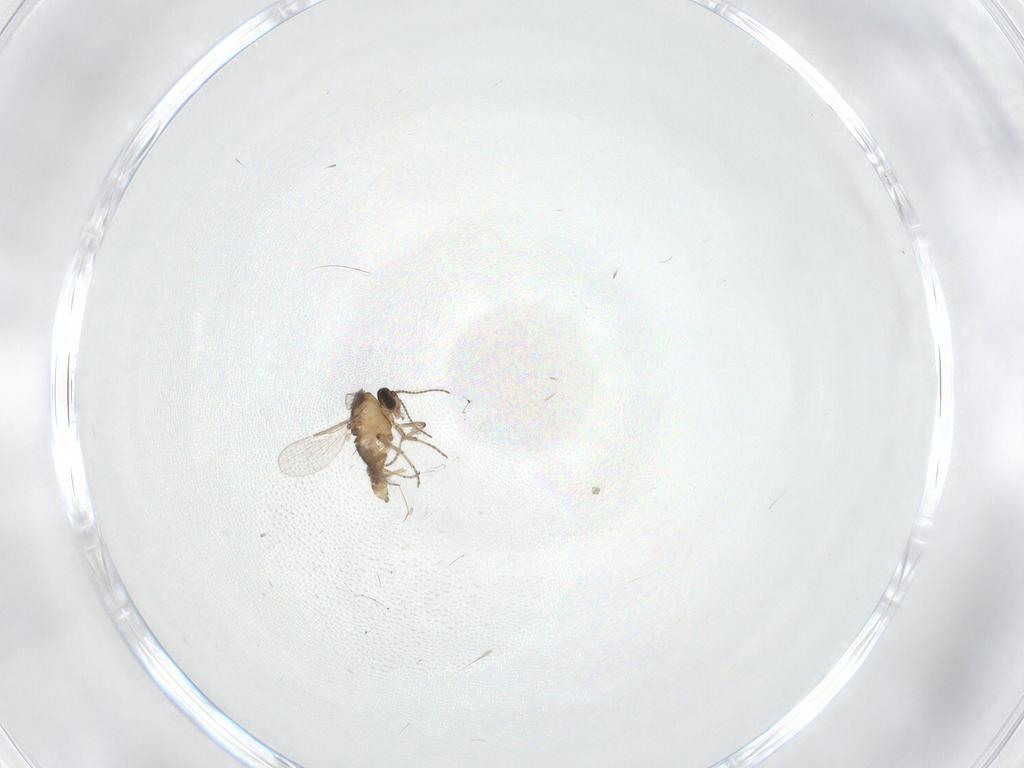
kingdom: Animalia
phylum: Arthropoda
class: Insecta
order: Diptera
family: Ceratopogonidae
